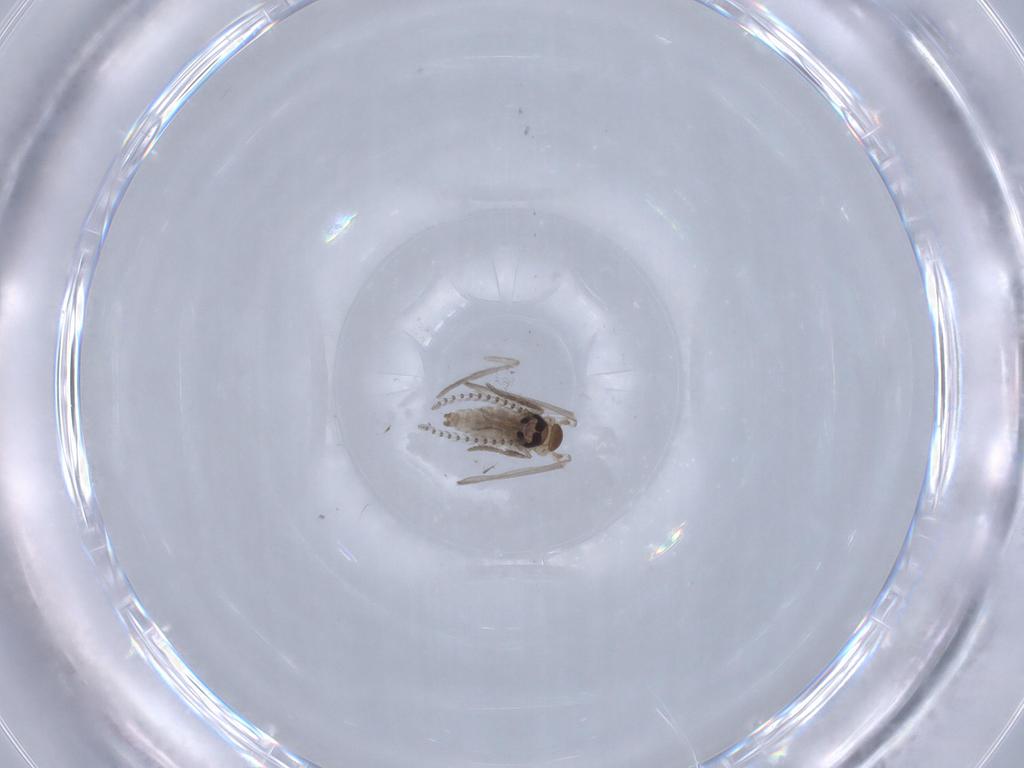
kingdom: Animalia
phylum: Arthropoda
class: Insecta
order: Diptera
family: Psychodidae
